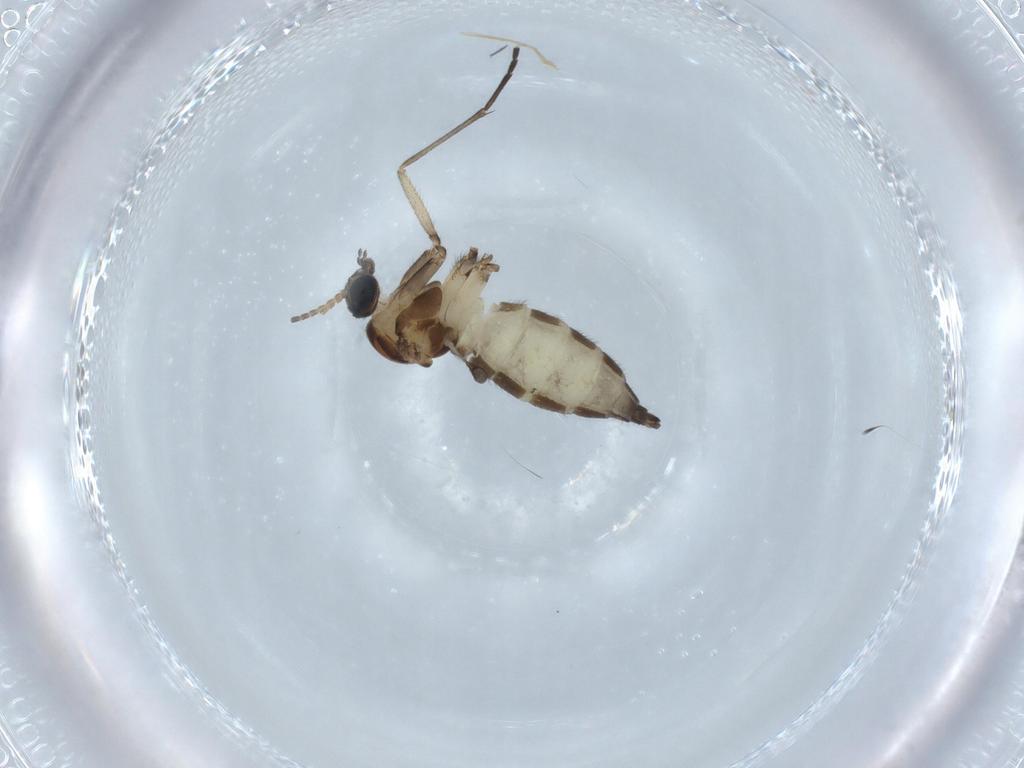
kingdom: Animalia
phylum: Arthropoda
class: Insecta
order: Diptera
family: Sciaridae
